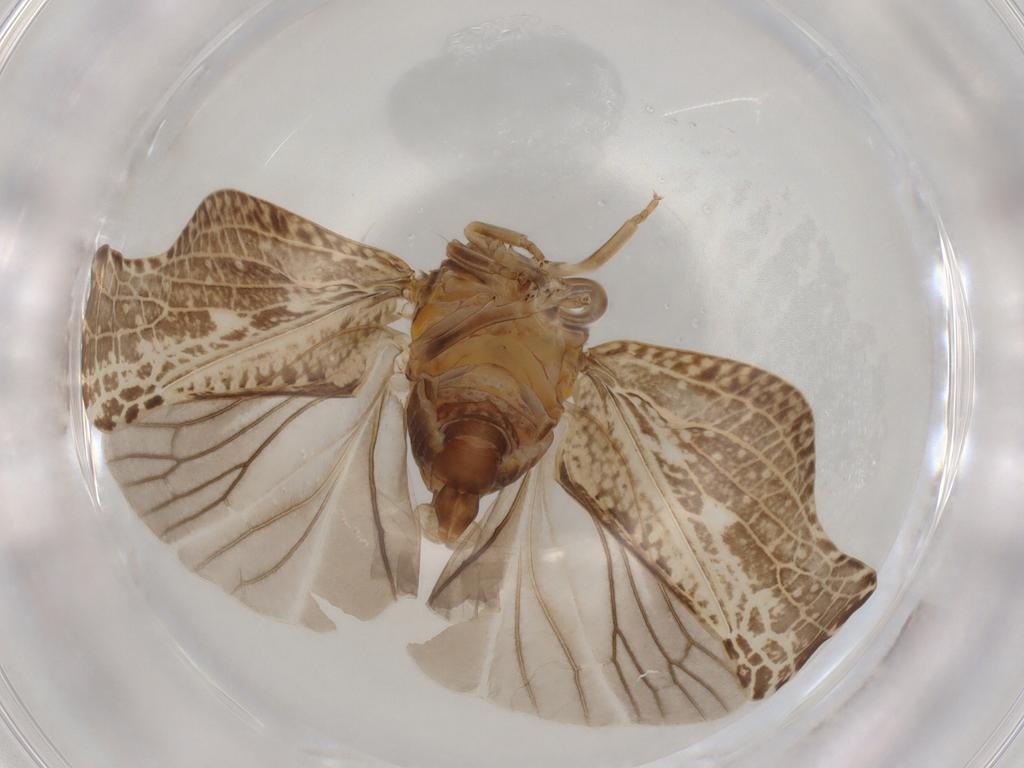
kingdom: Animalia
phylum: Arthropoda
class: Insecta
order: Hemiptera
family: Flatidae
